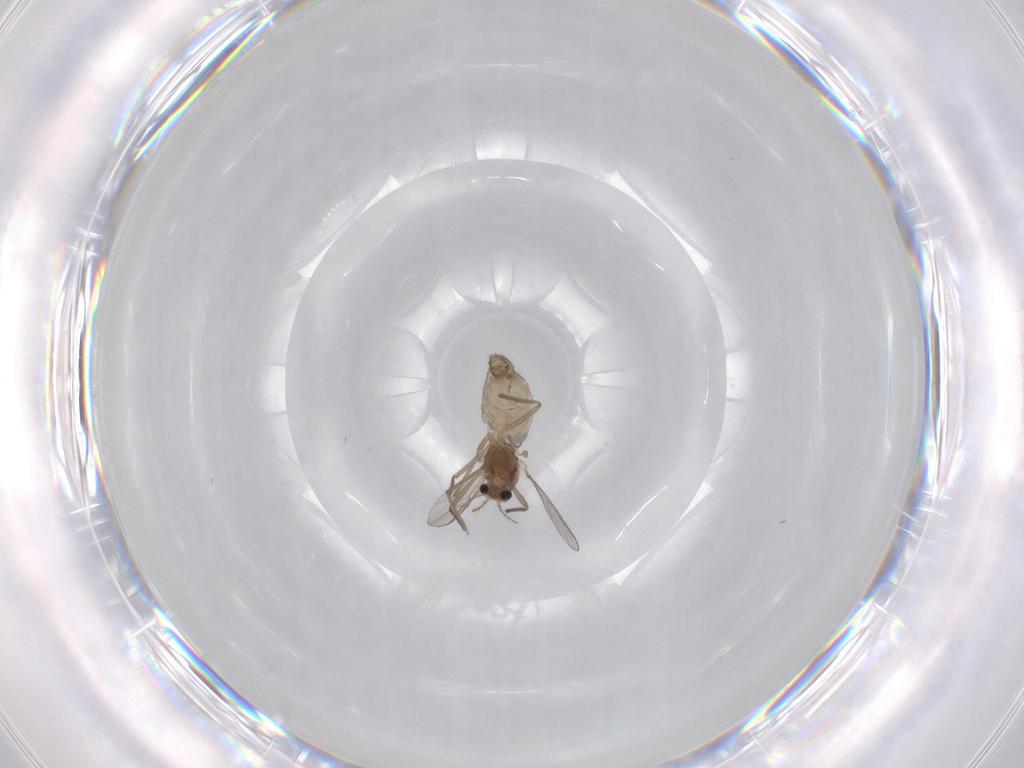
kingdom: Animalia
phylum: Arthropoda
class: Insecta
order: Diptera
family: Chironomidae
